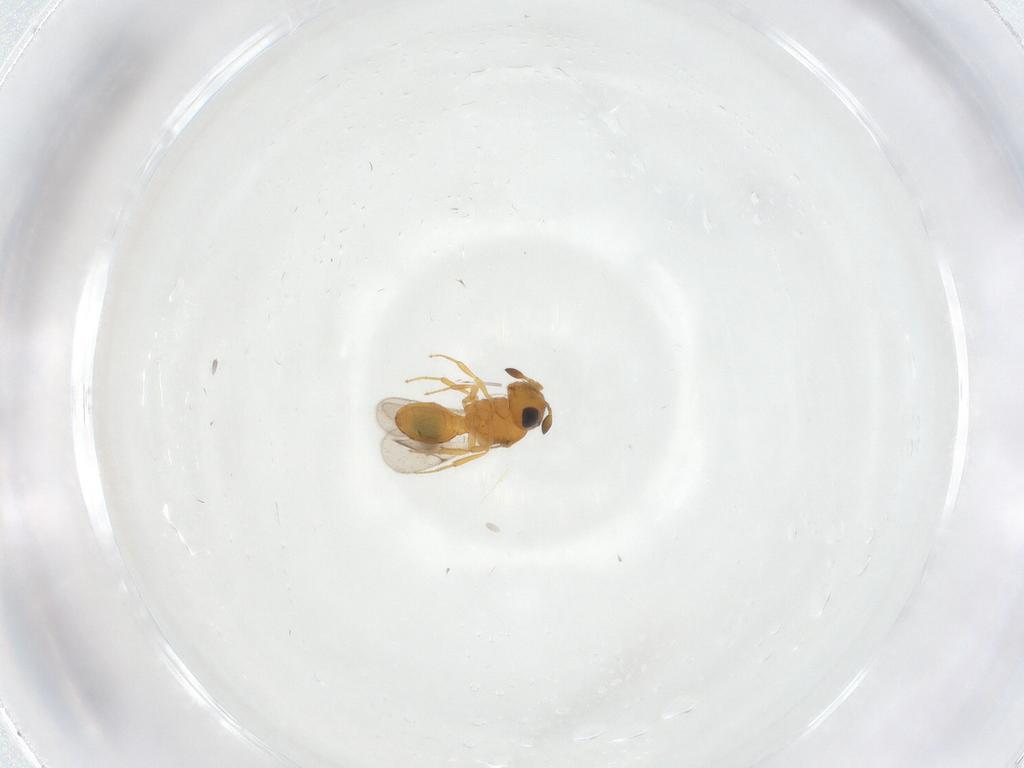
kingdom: Animalia
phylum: Arthropoda
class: Insecta
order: Hymenoptera
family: Scelionidae
